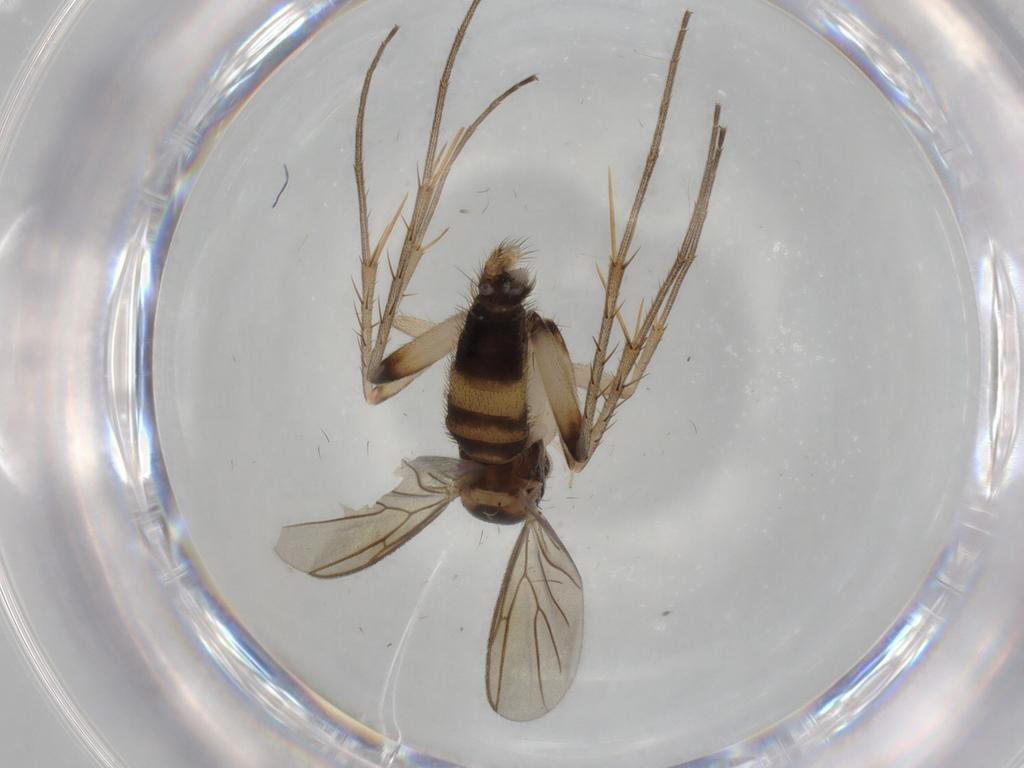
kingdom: Animalia
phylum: Arthropoda
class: Insecta
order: Diptera
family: Mycetophilidae
